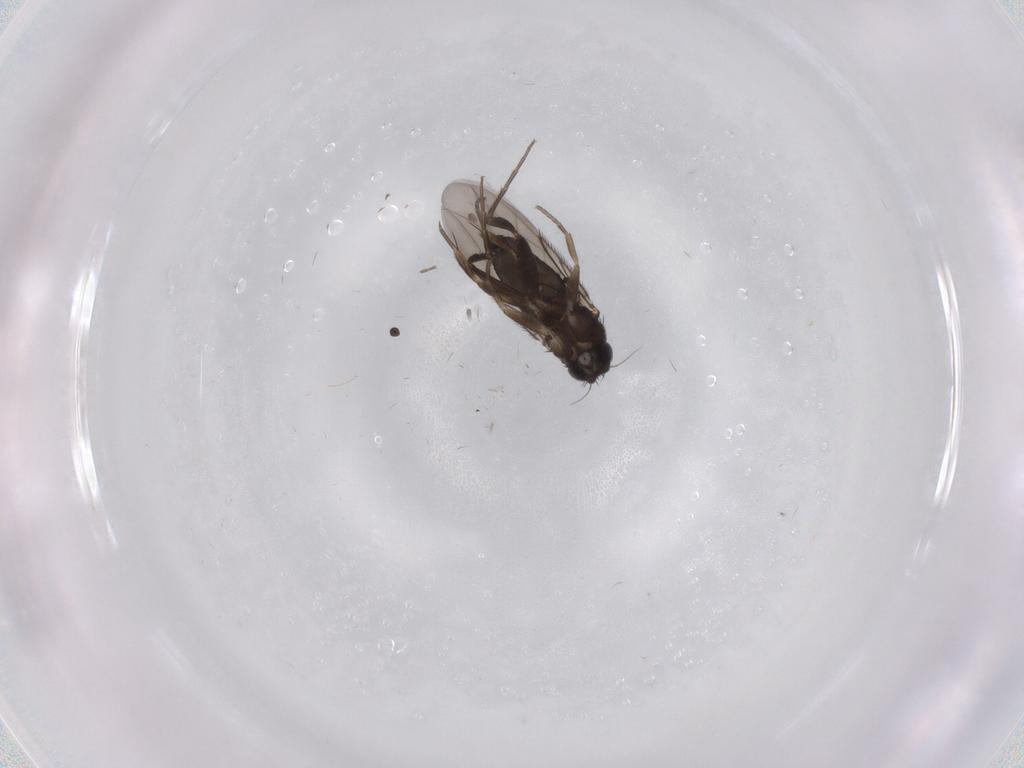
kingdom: Animalia
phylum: Arthropoda
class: Insecta
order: Diptera
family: Phoridae
